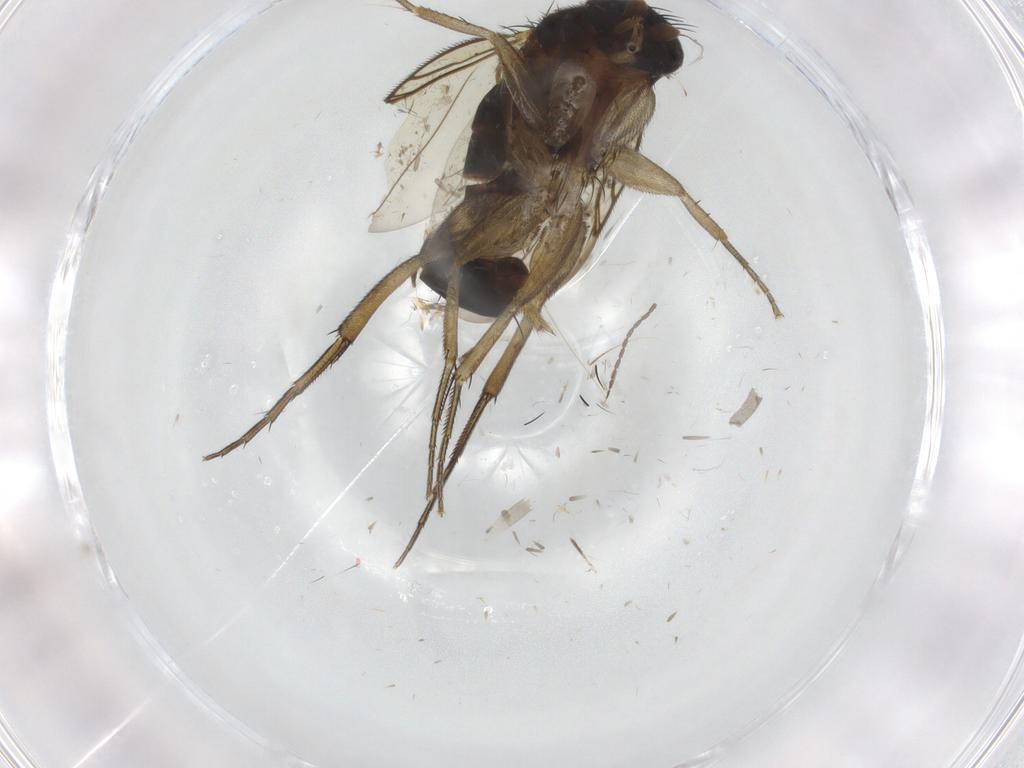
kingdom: Animalia
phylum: Arthropoda
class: Insecta
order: Diptera
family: Phoridae
